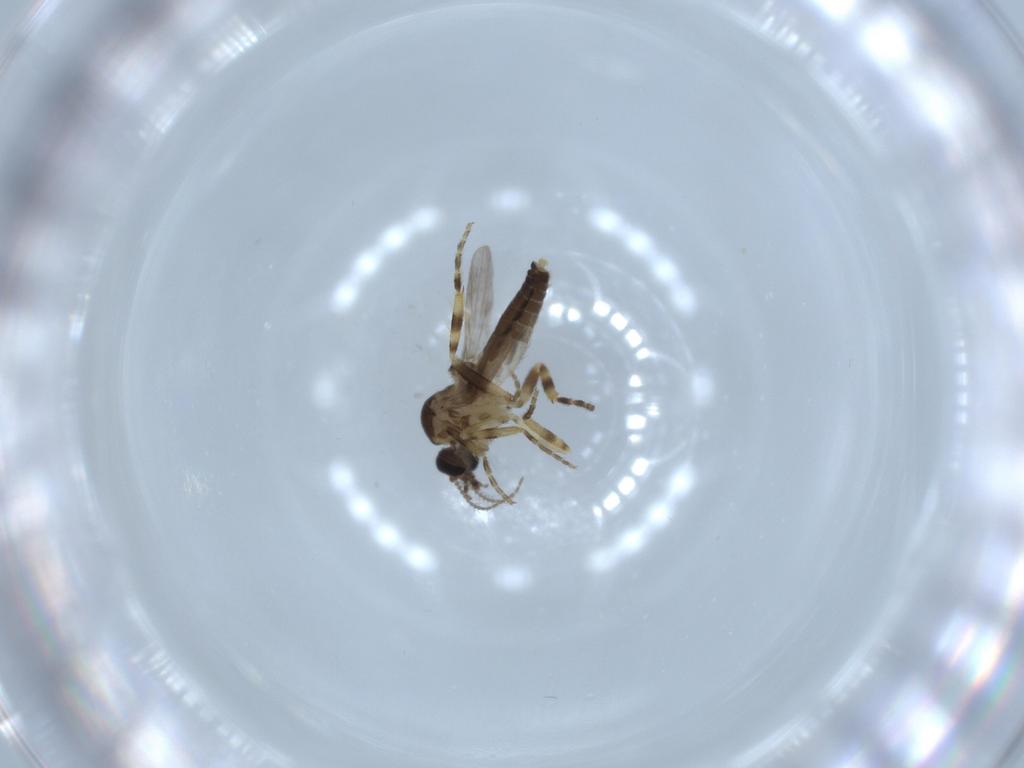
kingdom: Animalia
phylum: Arthropoda
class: Insecta
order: Diptera
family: Ceratopogonidae
